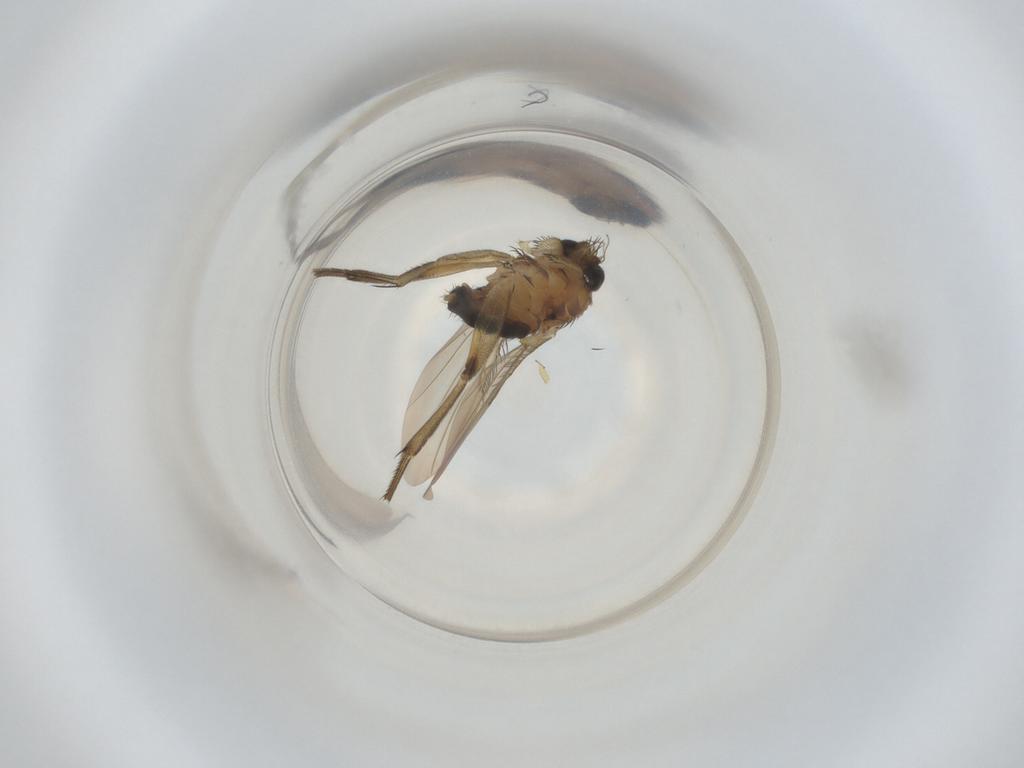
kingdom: Animalia
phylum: Arthropoda
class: Insecta
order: Diptera
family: Phoridae
